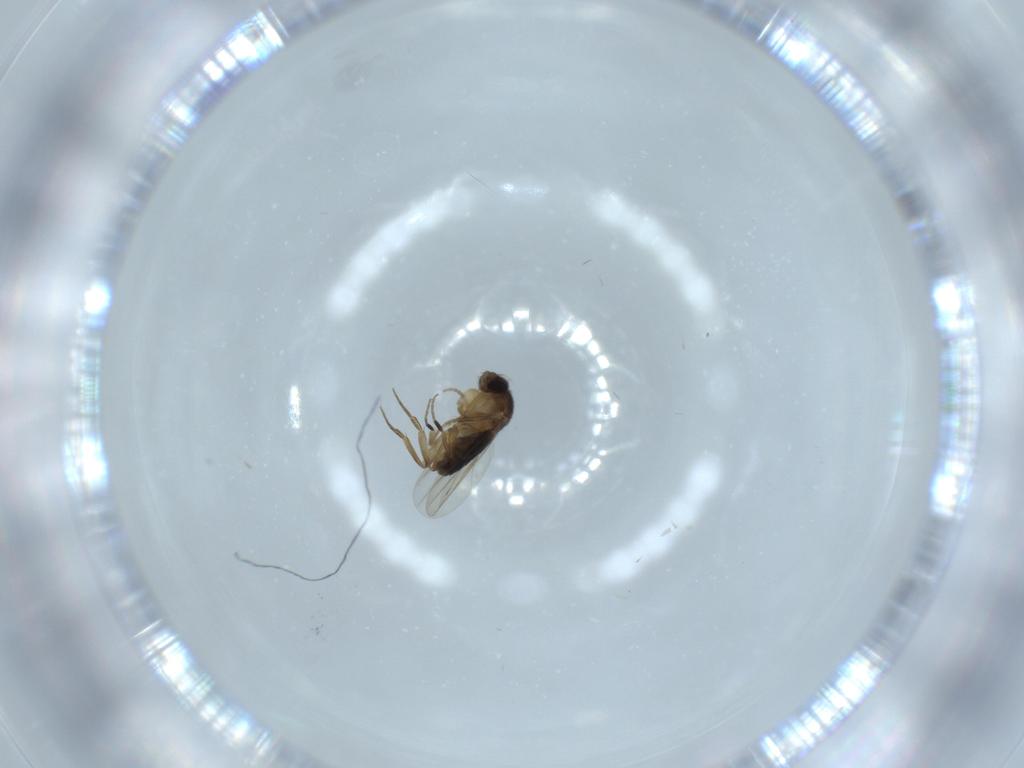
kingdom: Animalia
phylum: Arthropoda
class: Insecta
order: Diptera
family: Phoridae
